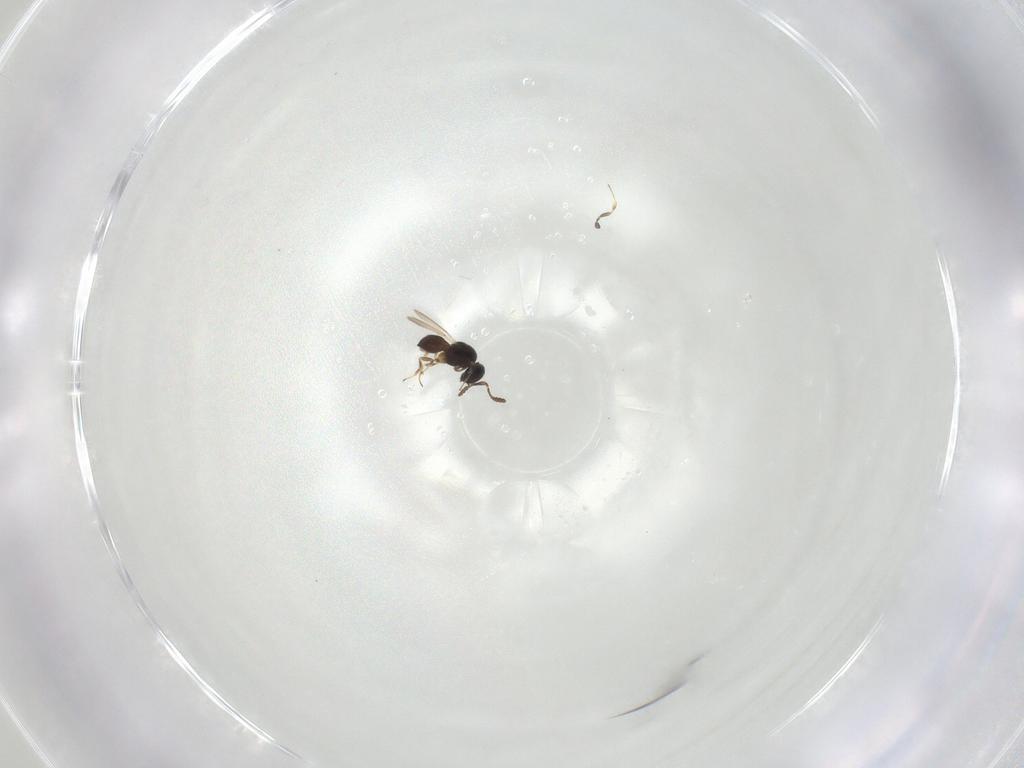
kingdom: Animalia
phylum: Arthropoda
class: Insecta
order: Hymenoptera
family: Scelionidae
